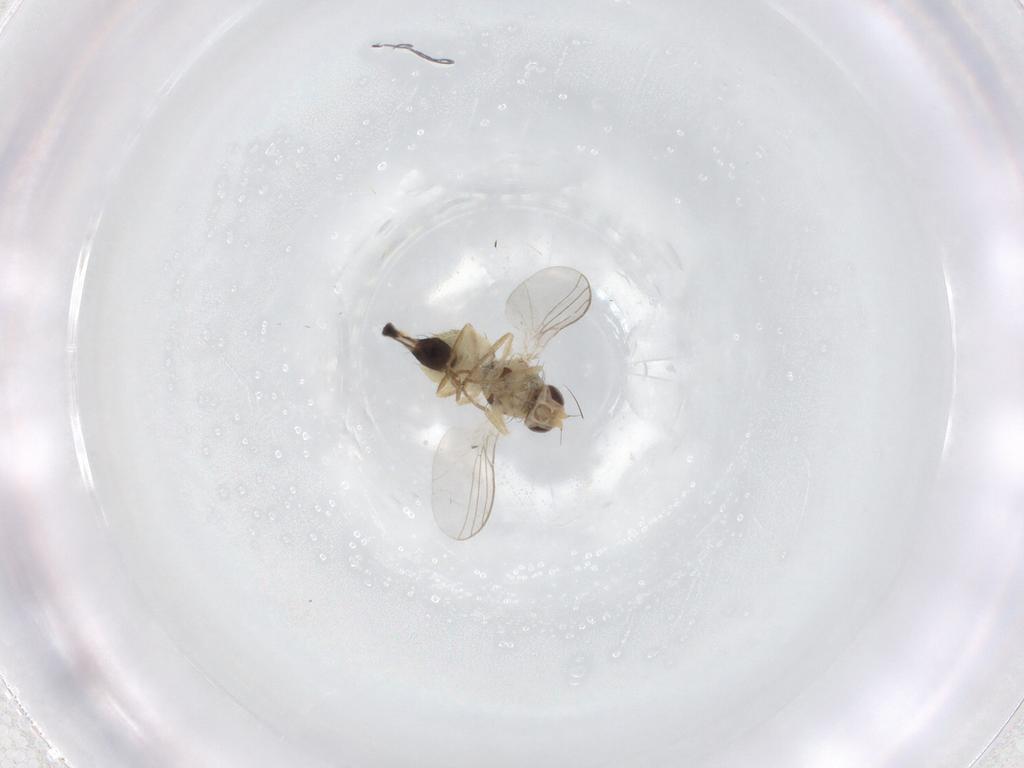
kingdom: Animalia
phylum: Arthropoda
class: Insecta
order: Diptera
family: Agromyzidae
